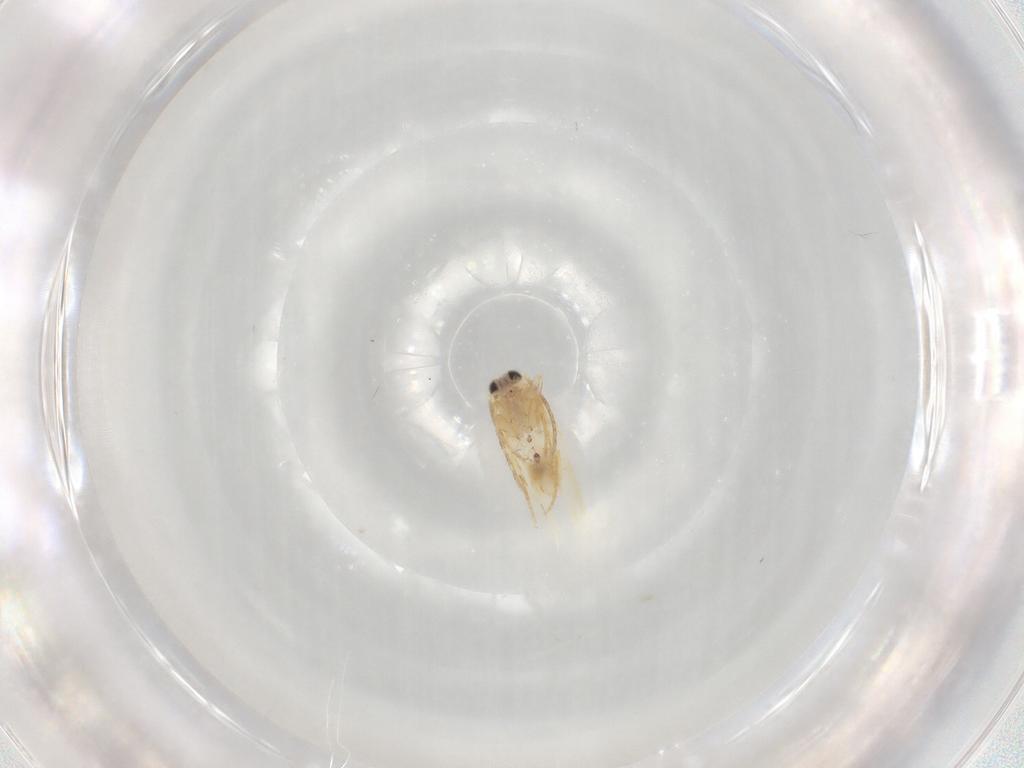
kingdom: Animalia
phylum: Arthropoda
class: Insecta
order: Lepidoptera
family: Nepticulidae
